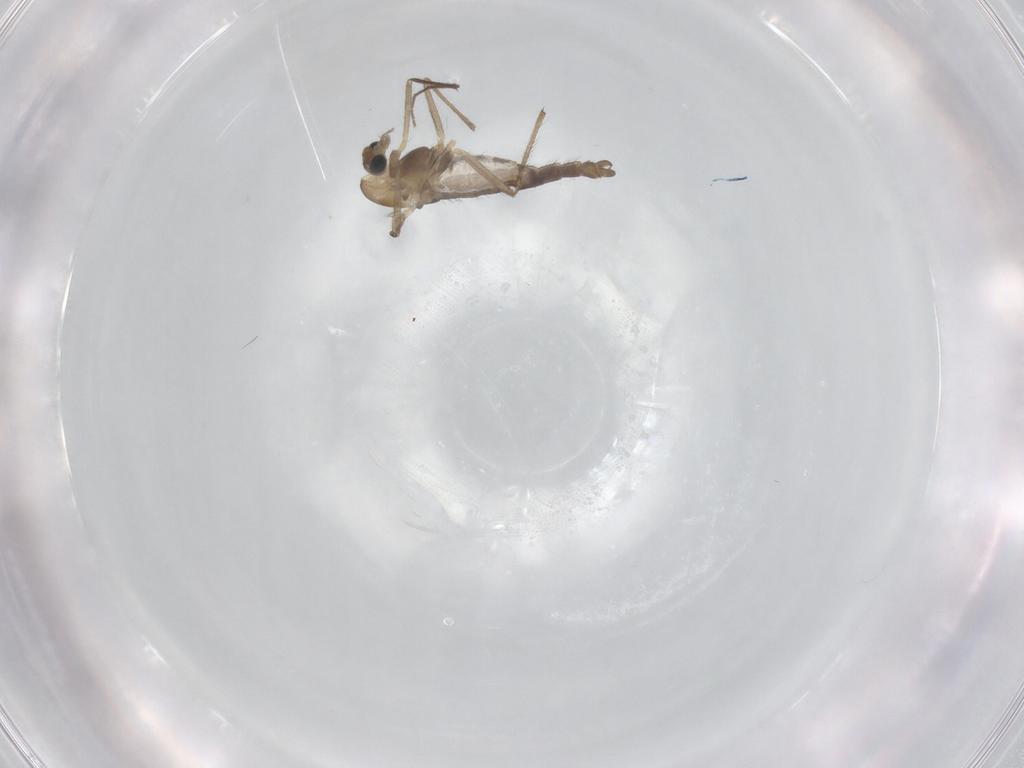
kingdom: Animalia
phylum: Arthropoda
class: Insecta
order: Diptera
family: Chironomidae
